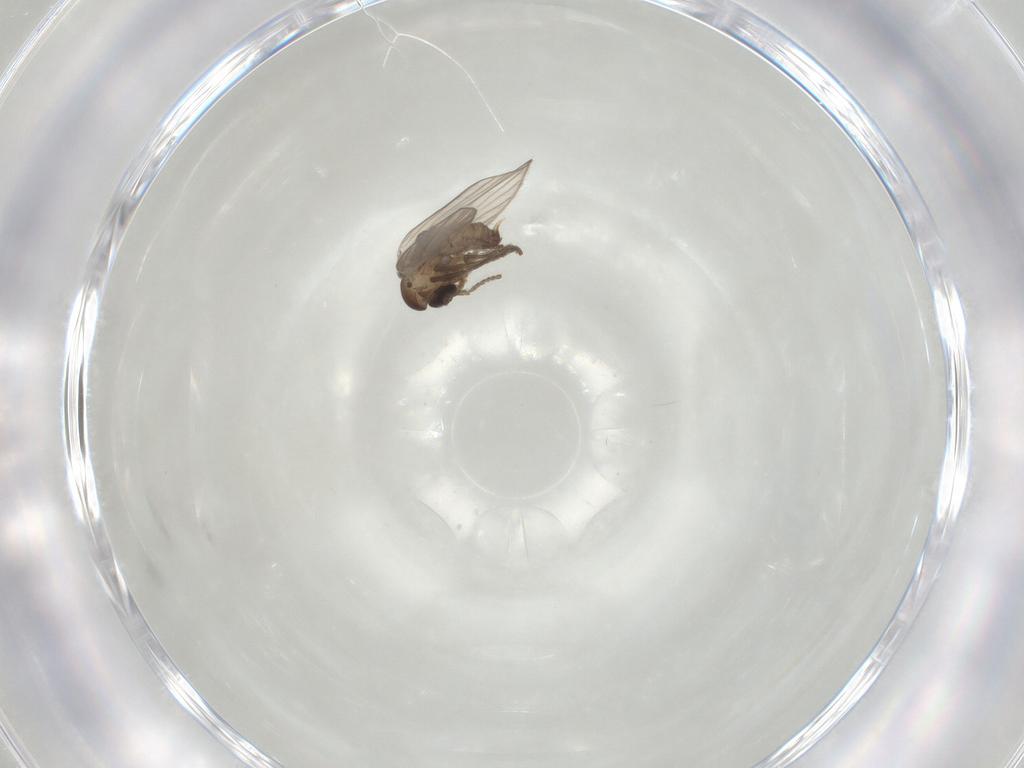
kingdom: Animalia
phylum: Arthropoda
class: Insecta
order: Diptera
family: Psychodidae
